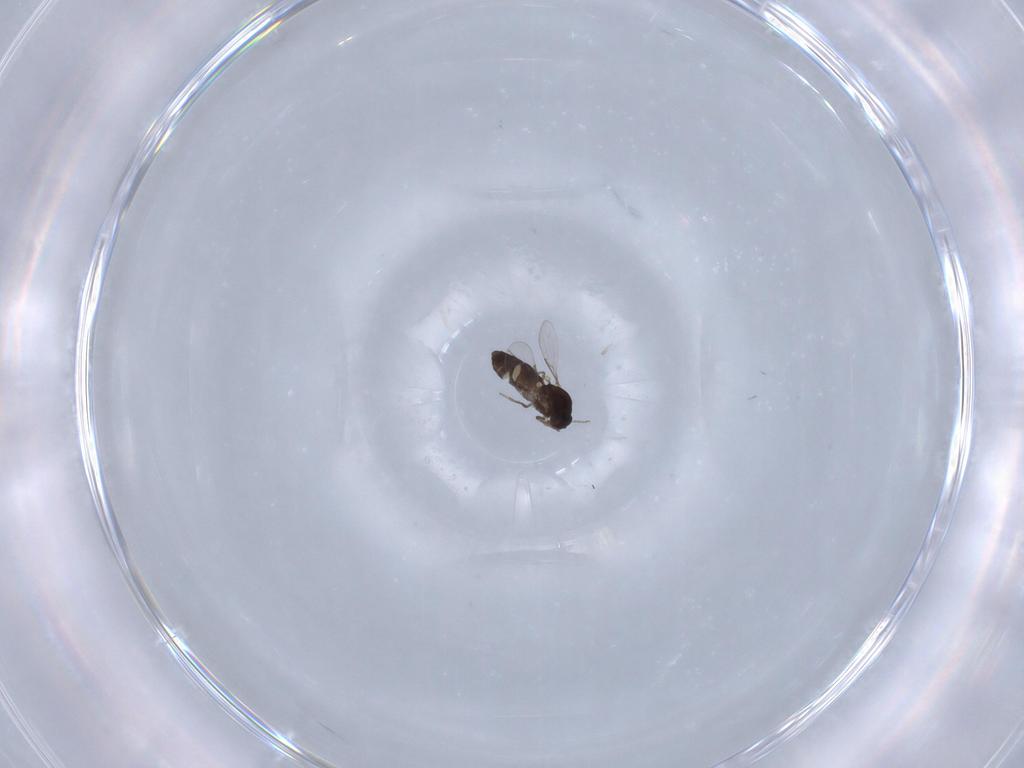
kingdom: Animalia
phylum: Arthropoda
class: Insecta
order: Diptera
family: Ceratopogonidae
